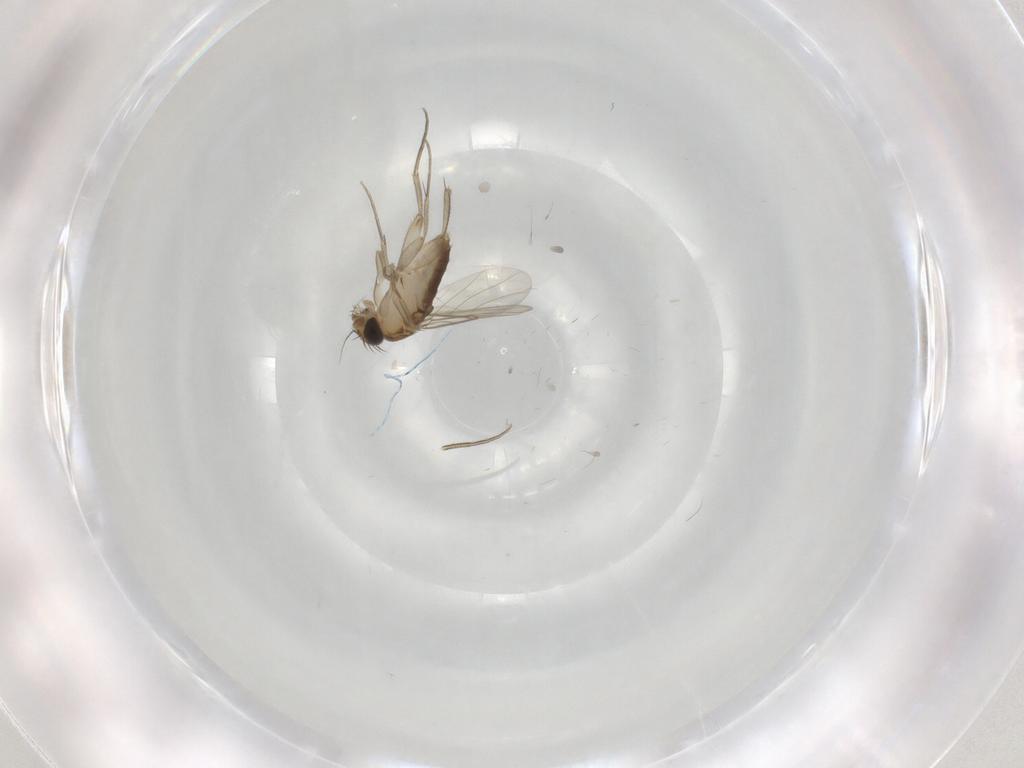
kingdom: Animalia
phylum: Arthropoda
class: Insecta
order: Diptera
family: Phoridae
